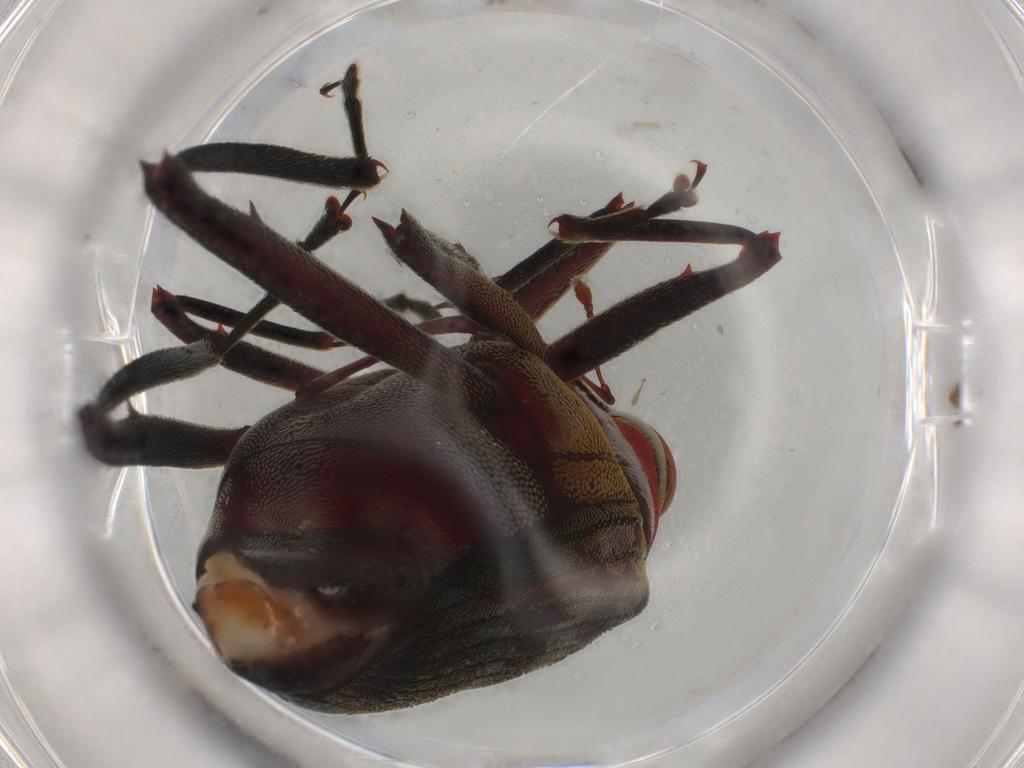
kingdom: Animalia
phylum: Arthropoda
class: Insecta
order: Coleoptera
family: Curculionidae
